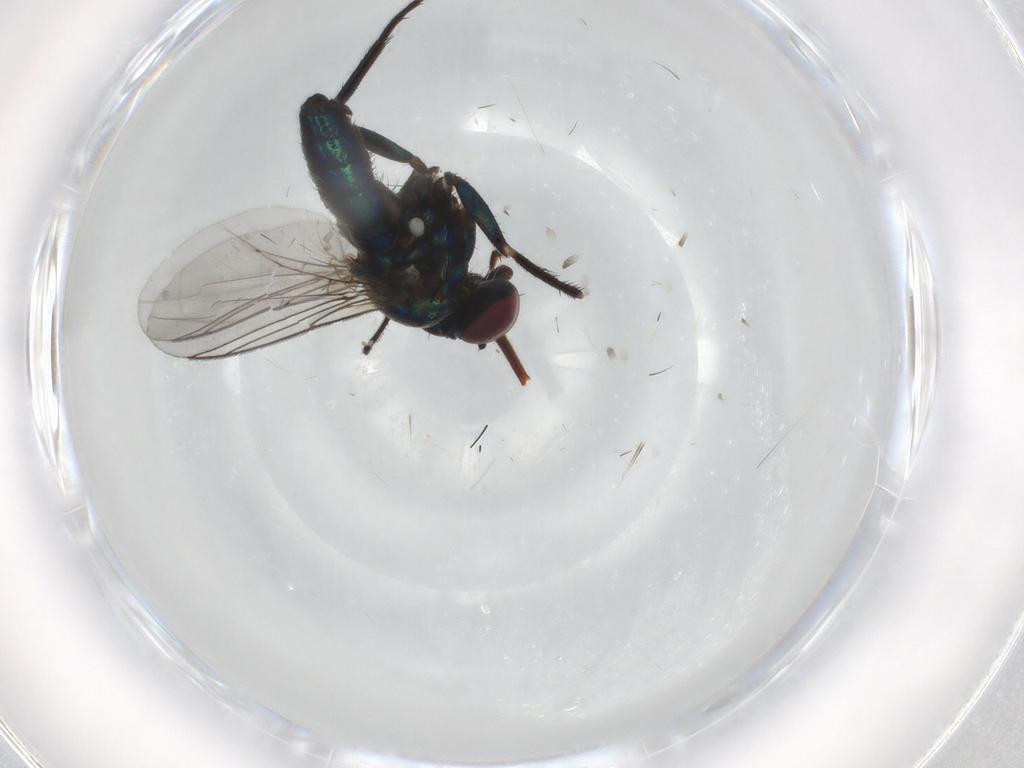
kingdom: Animalia
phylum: Arthropoda
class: Insecta
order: Diptera
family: Dolichopodidae
